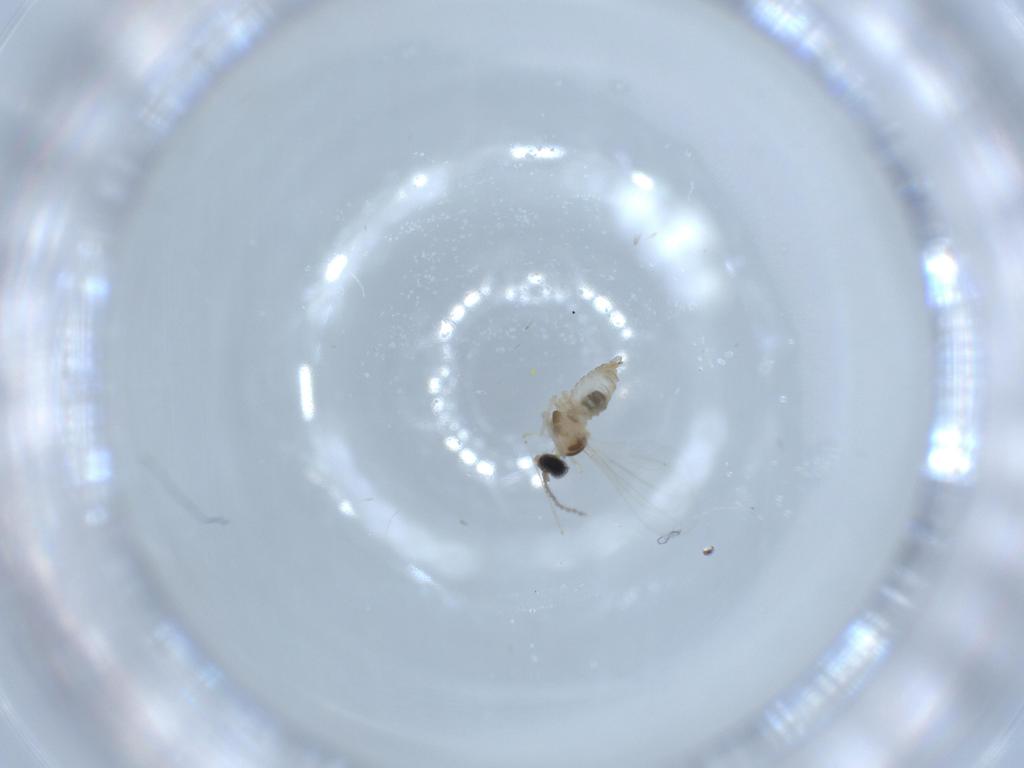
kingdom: Animalia
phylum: Arthropoda
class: Insecta
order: Diptera
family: Cecidomyiidae
